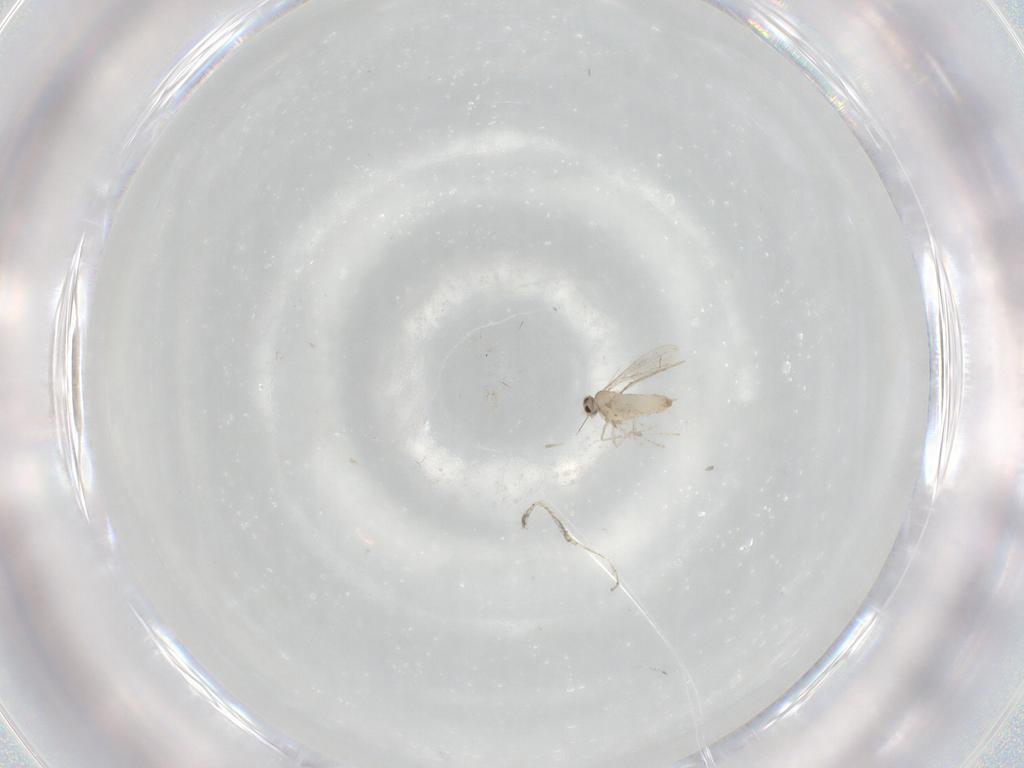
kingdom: Animalia
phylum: Arthropoda
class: Insecta
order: Diptera
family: Cecidomyiidae
